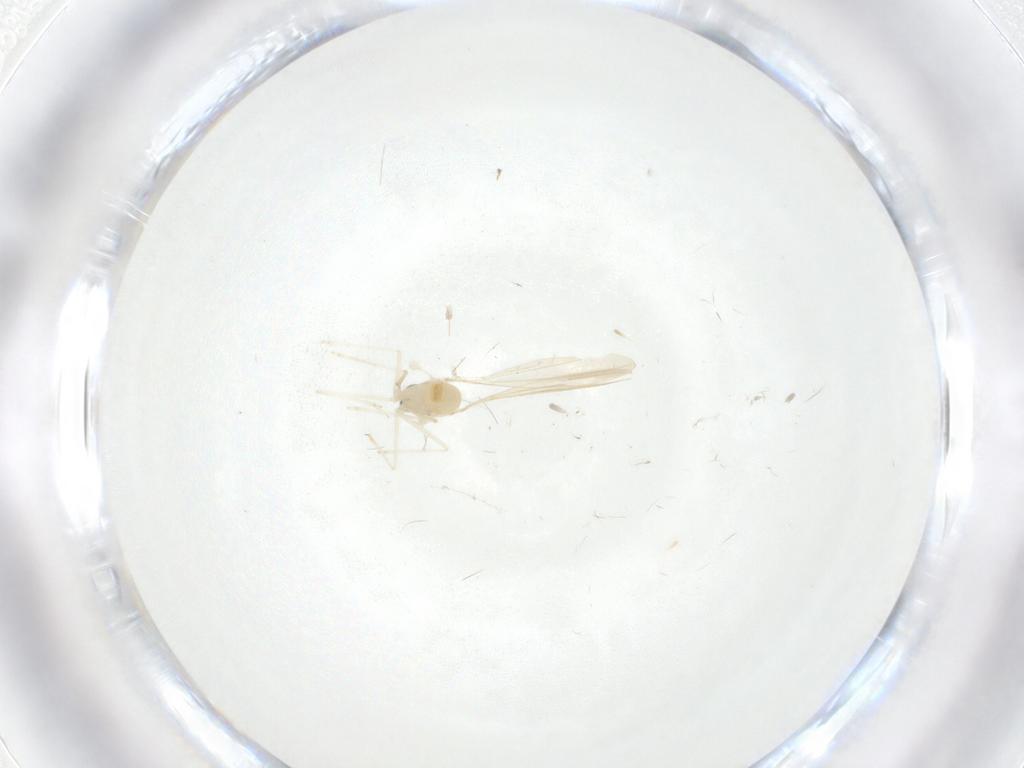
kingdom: Animalia
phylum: Arthropoda
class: Insecta
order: Diptera
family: Cecidomyiidae
